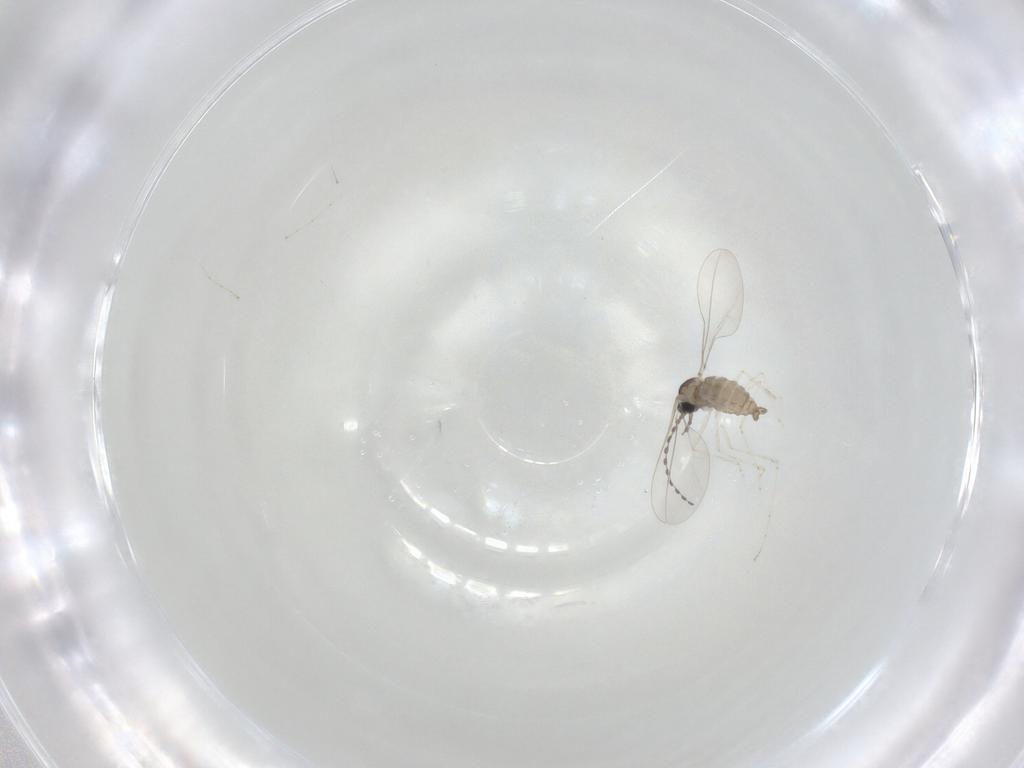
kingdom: Animalia
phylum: Arthropoda
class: Insecta
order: Diptera
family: Cecidomyiidae
